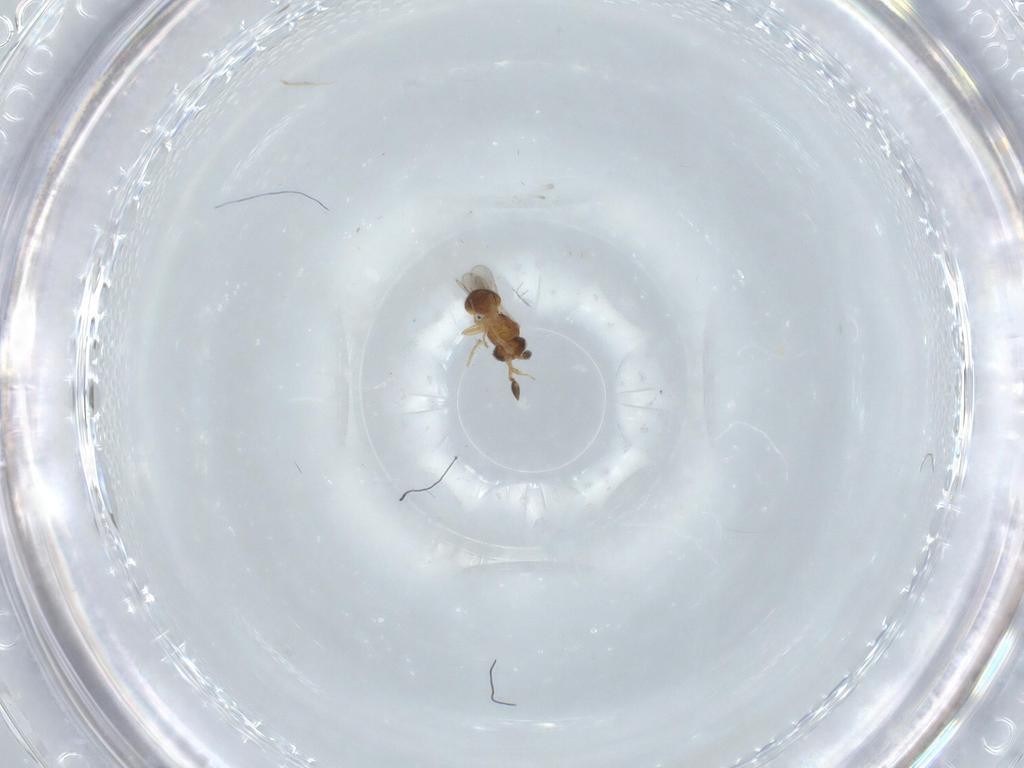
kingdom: Animalia
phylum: Arthropoda
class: Insecta
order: Hymenoptera
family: Scelionidae
